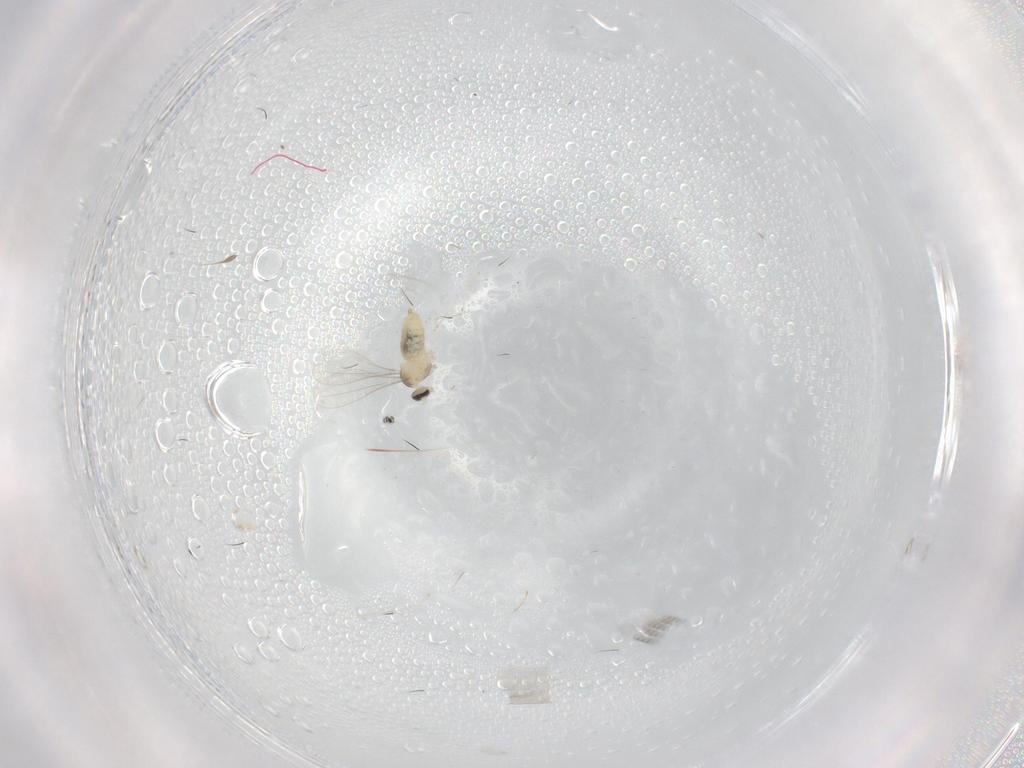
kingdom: Animalia
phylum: Arthropoda
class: Insecta
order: Diptera
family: Cecidomyiidae
